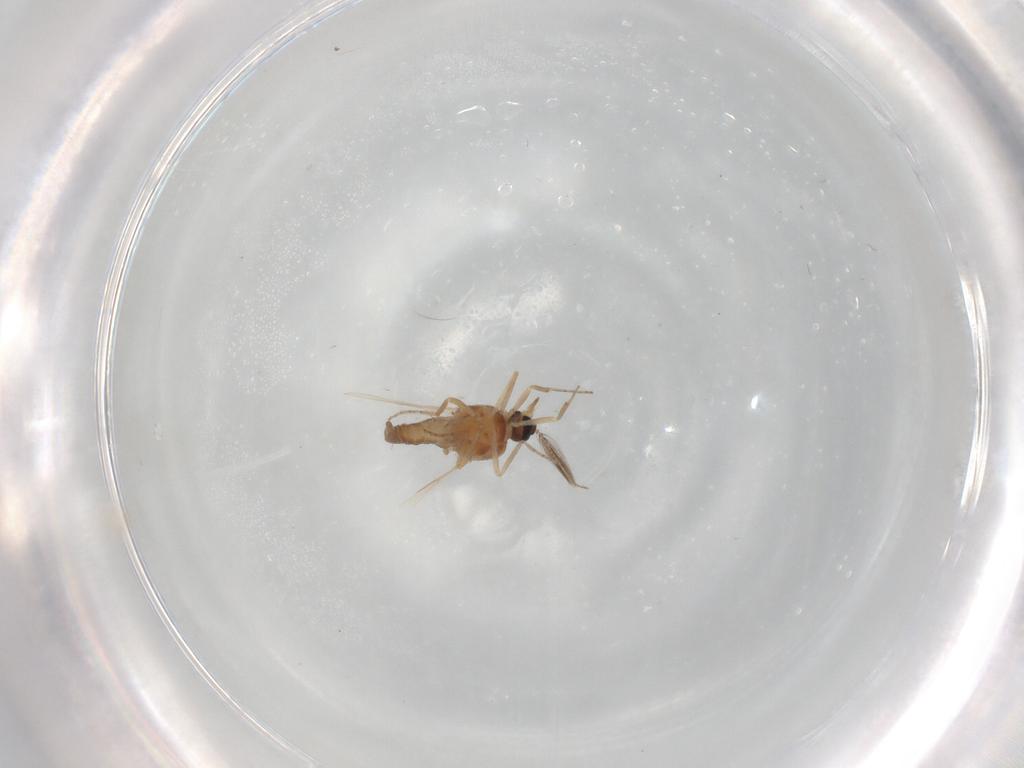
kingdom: Animalia
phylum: Arthropoda
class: Insecta
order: Diptera
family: Ceratopogonidae
